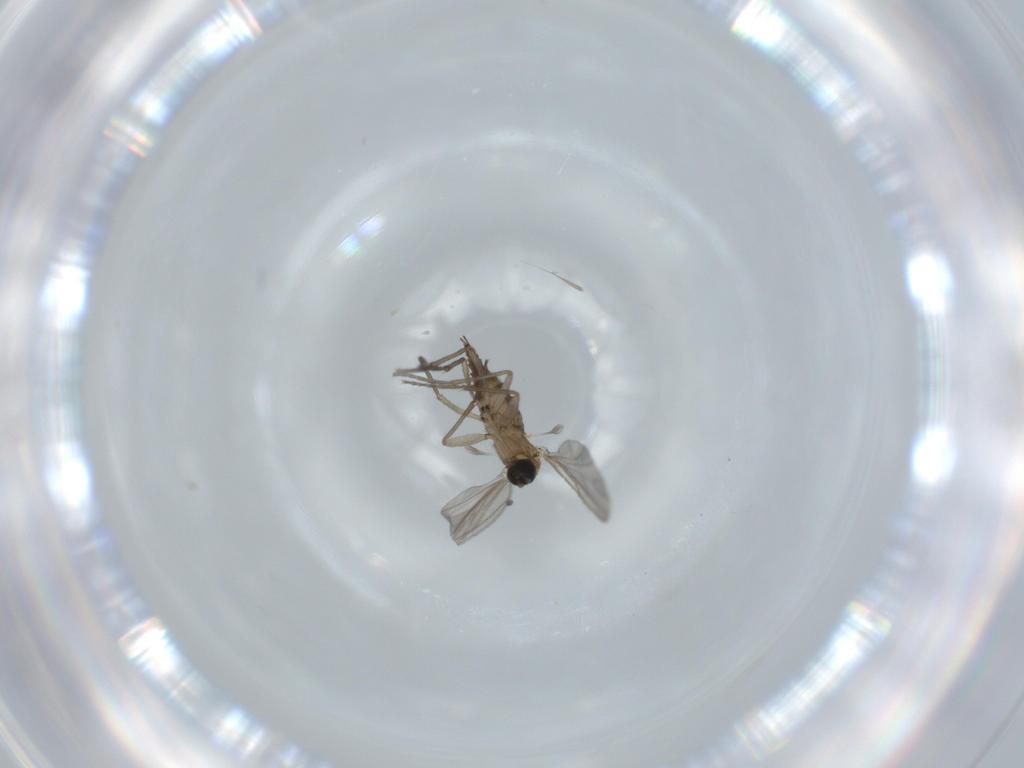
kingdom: Animalia
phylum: Arthropoda
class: Insecta
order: Diptera
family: Sciaridae
